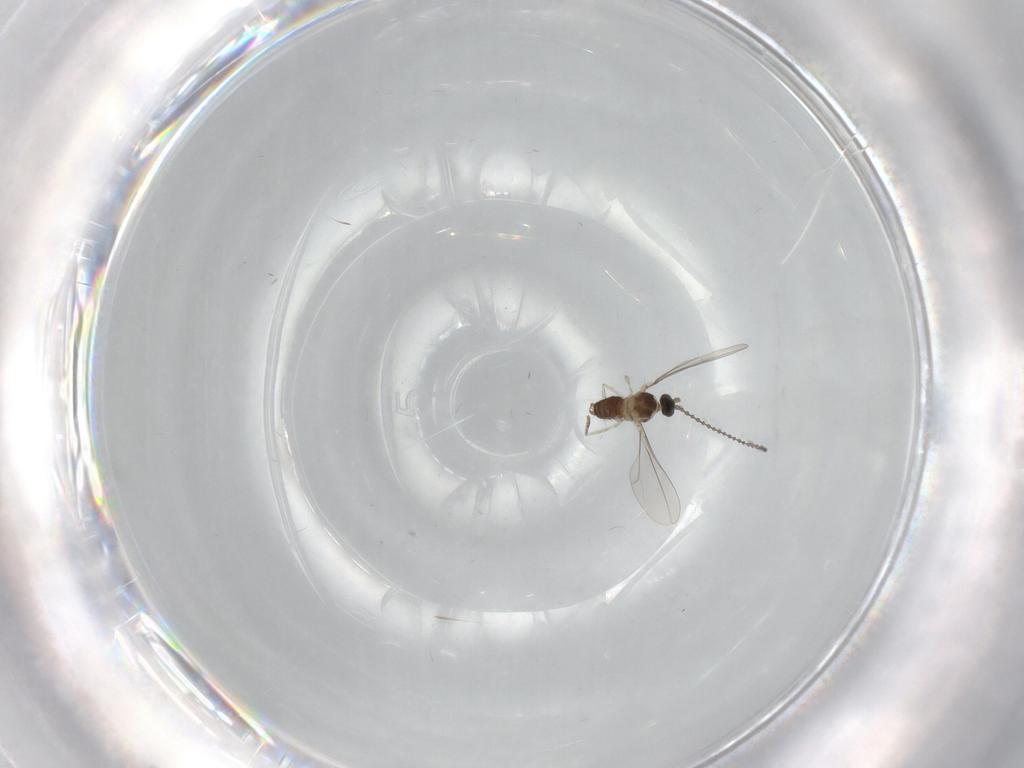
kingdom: Animalia
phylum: Arthropoda
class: Insecta
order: Diptera
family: Cecidomyiidae
